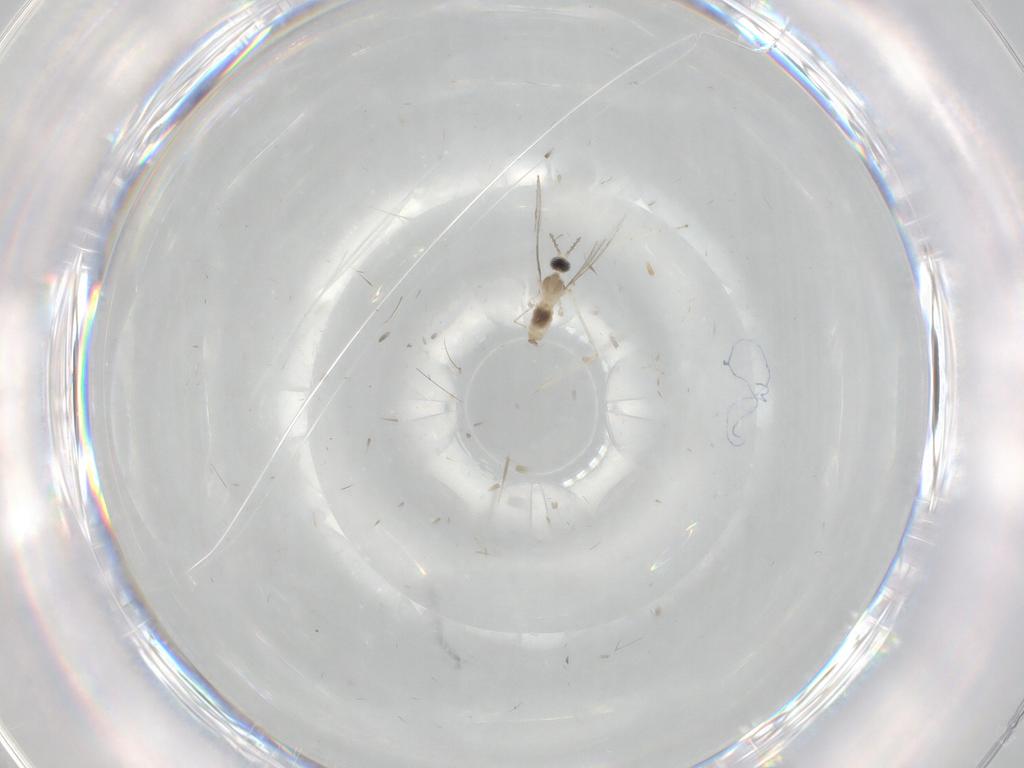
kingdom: Animalia
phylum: Arthropoda
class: Insecta
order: Diptera
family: Cecidomyiidae
